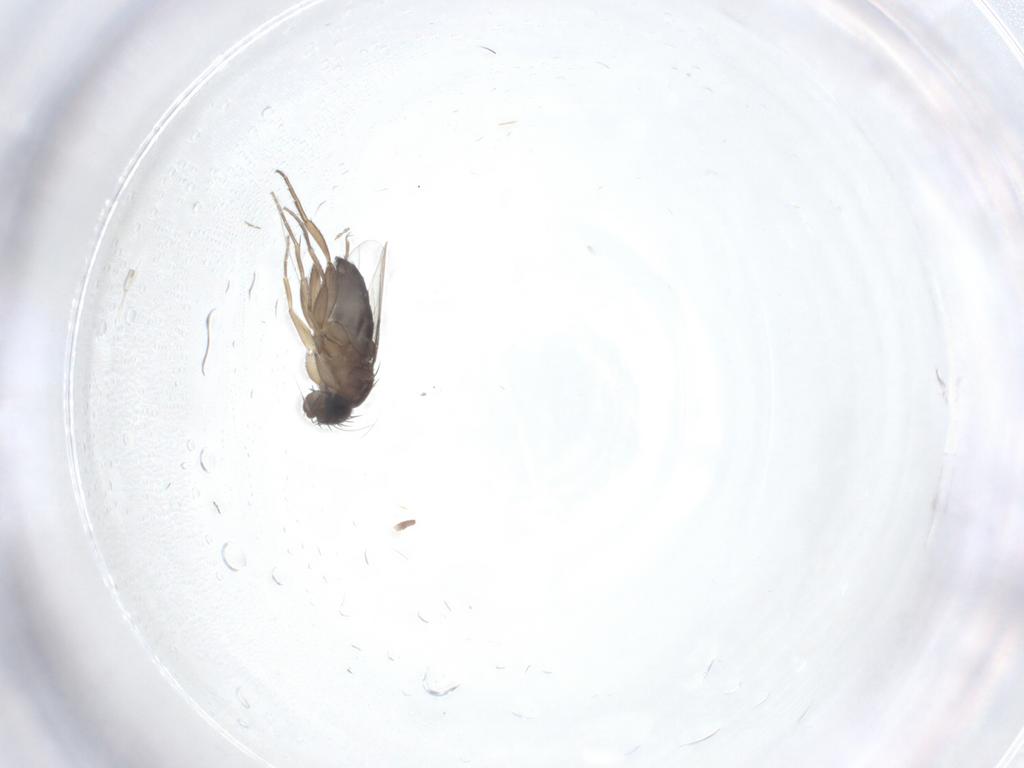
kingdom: Animalia
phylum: Arthropoda
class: Insecta
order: Diptera
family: Phoridae
